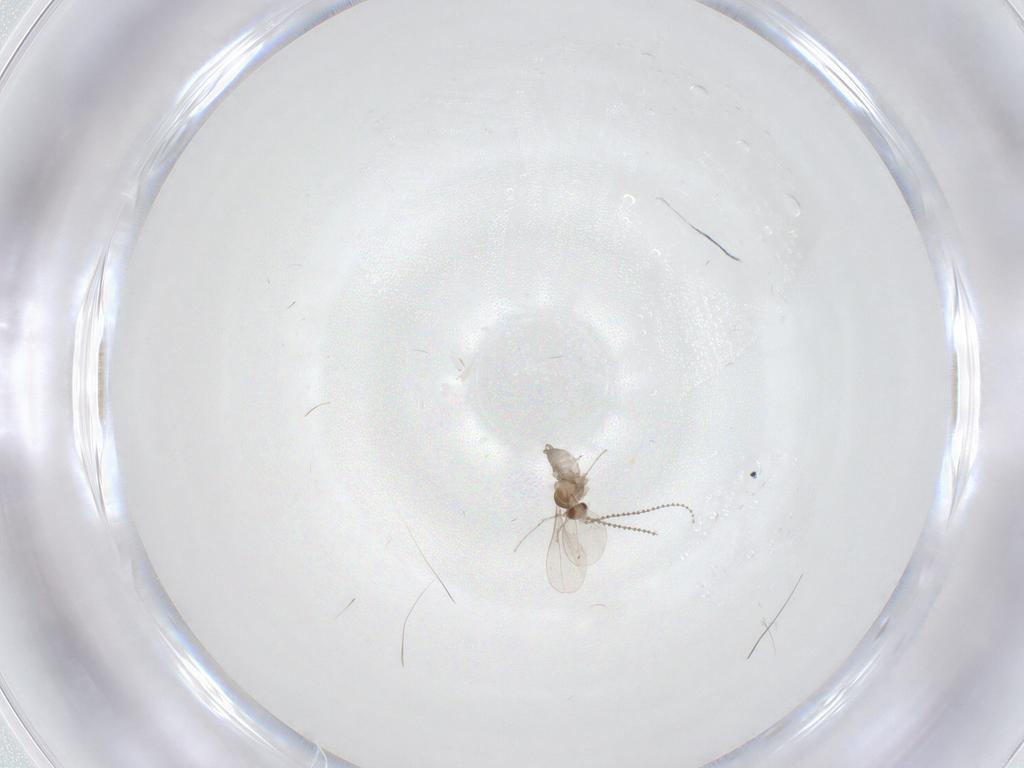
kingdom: Animalia
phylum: Arthropoda
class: Insecta
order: Diptera
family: Cecidomyiidae
